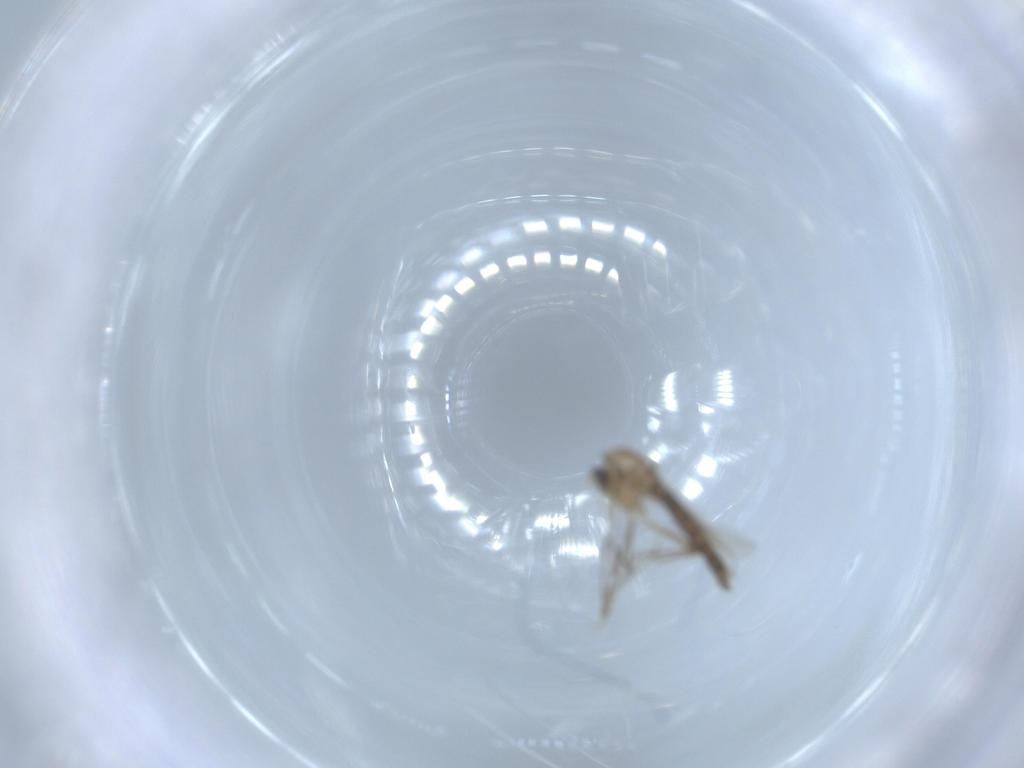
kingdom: Animalia
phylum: Arthropoda
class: Insecta
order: Diptera
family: Chironomidae
